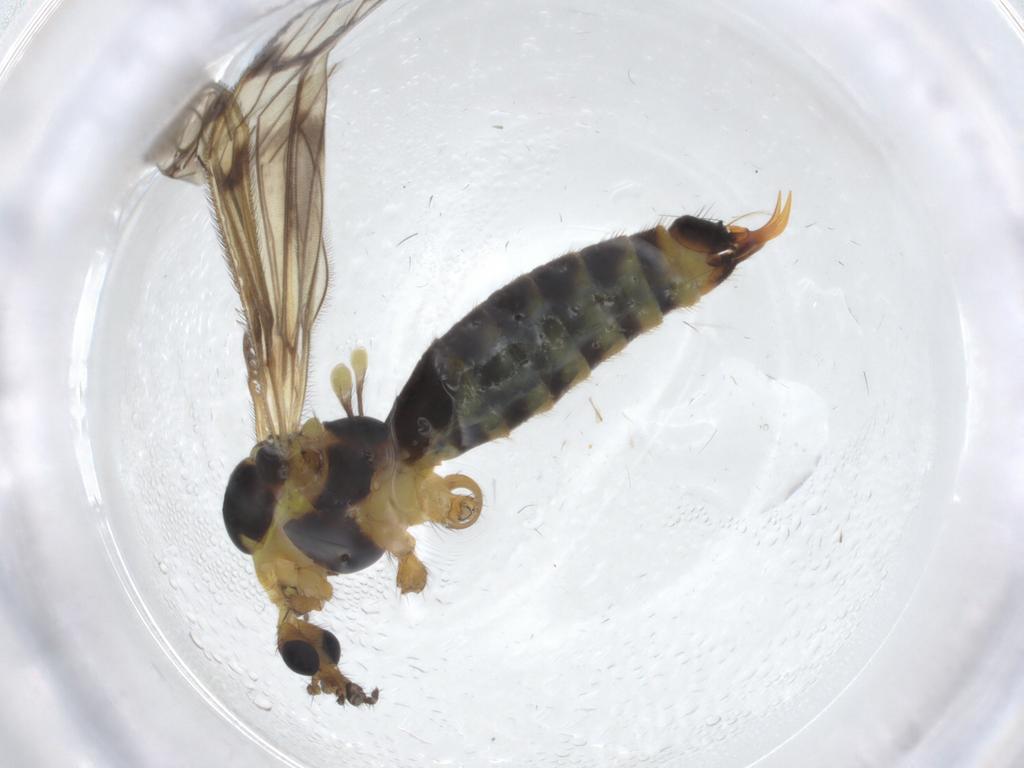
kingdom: Animalia
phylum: Arthropoda
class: Insecta
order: Diptera
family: Limoniidae
